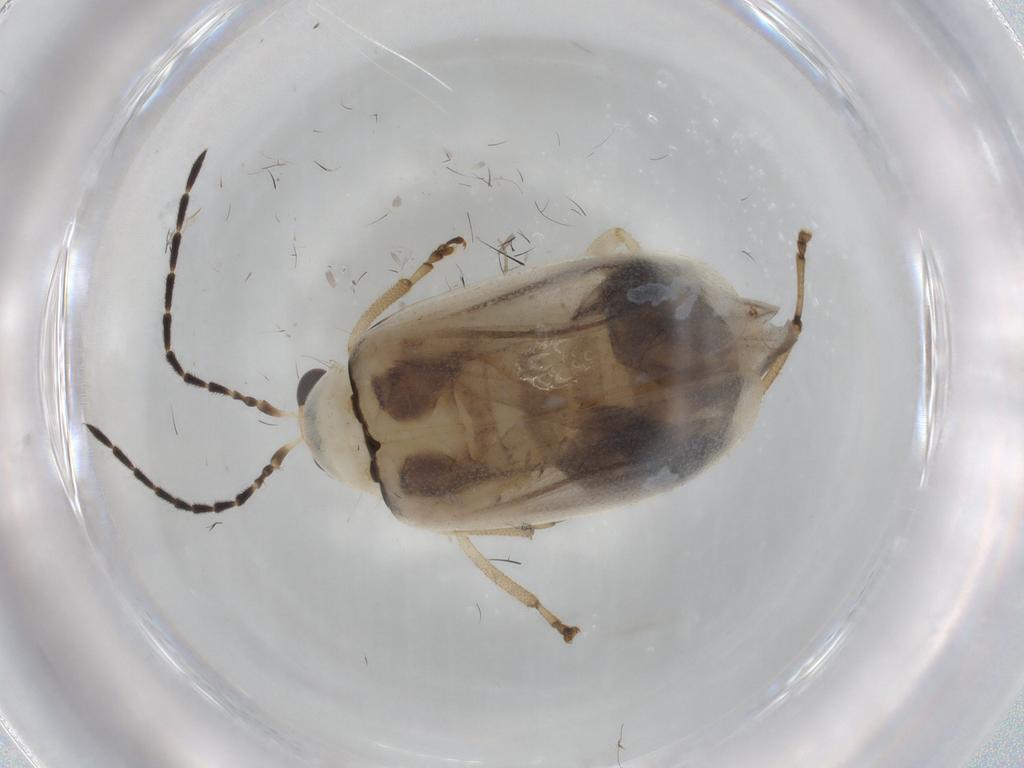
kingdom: Animalia
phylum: Arthropoda
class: Insecta
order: Coleoptera
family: Chrysomelidae
